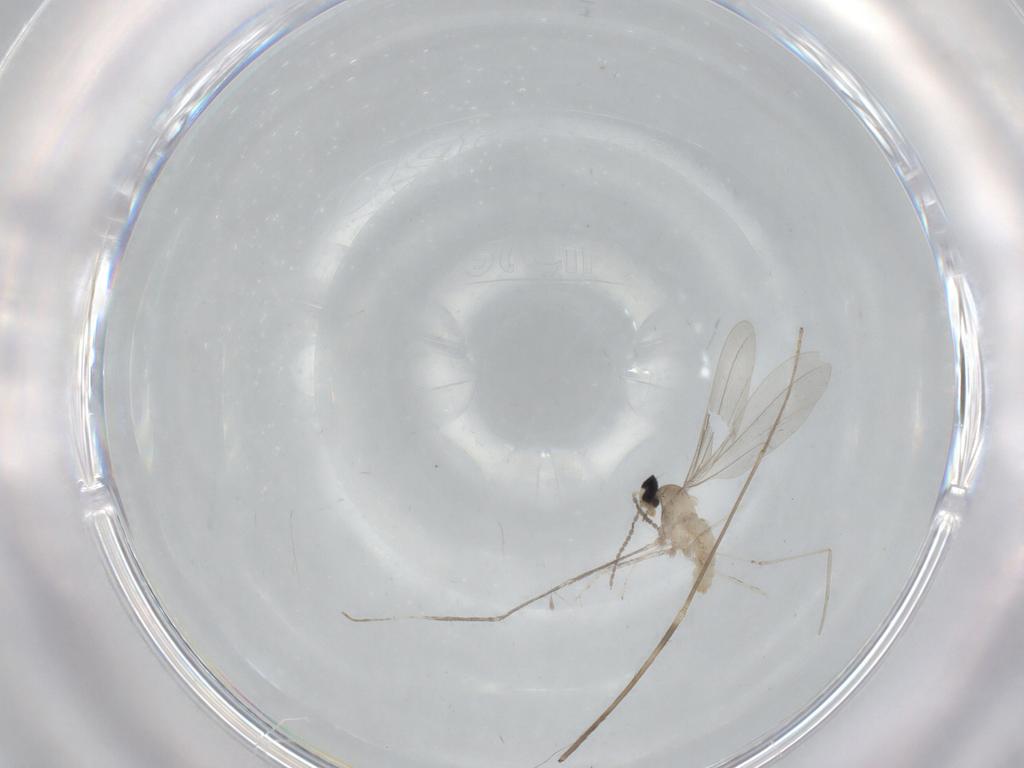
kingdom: Animalia
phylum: Arthropoda
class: Insecta
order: Diptera
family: Limoniidae
